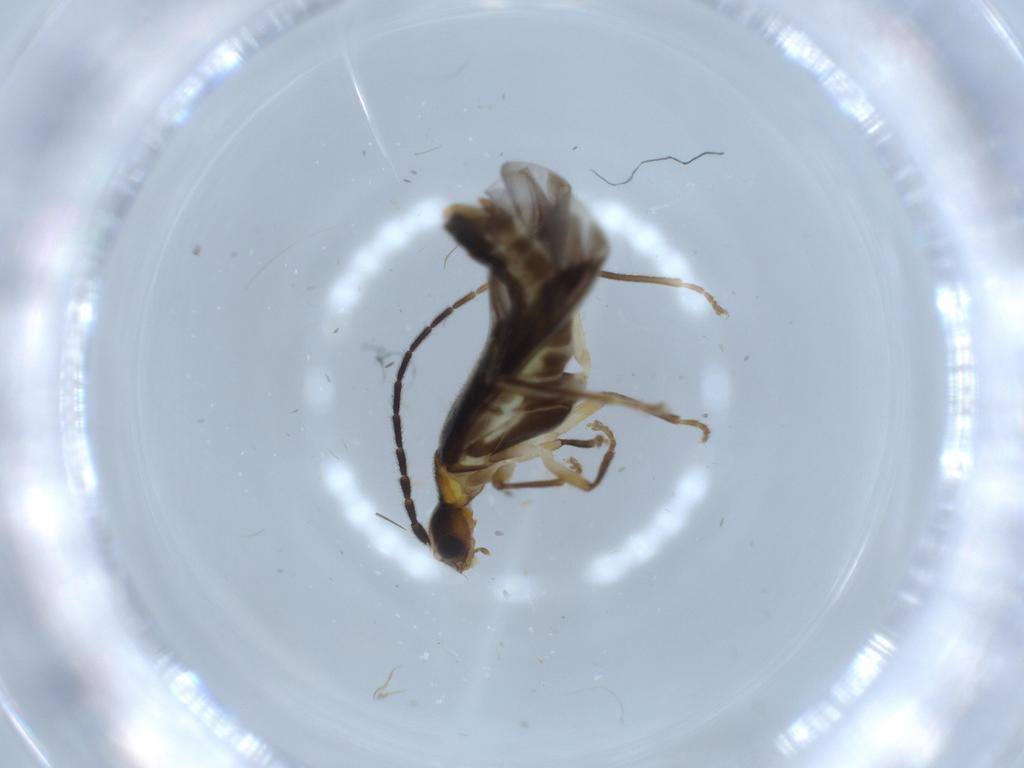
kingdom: Animalia
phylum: Arthropoda
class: Insecta
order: Coleoptera
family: Cantharidae
